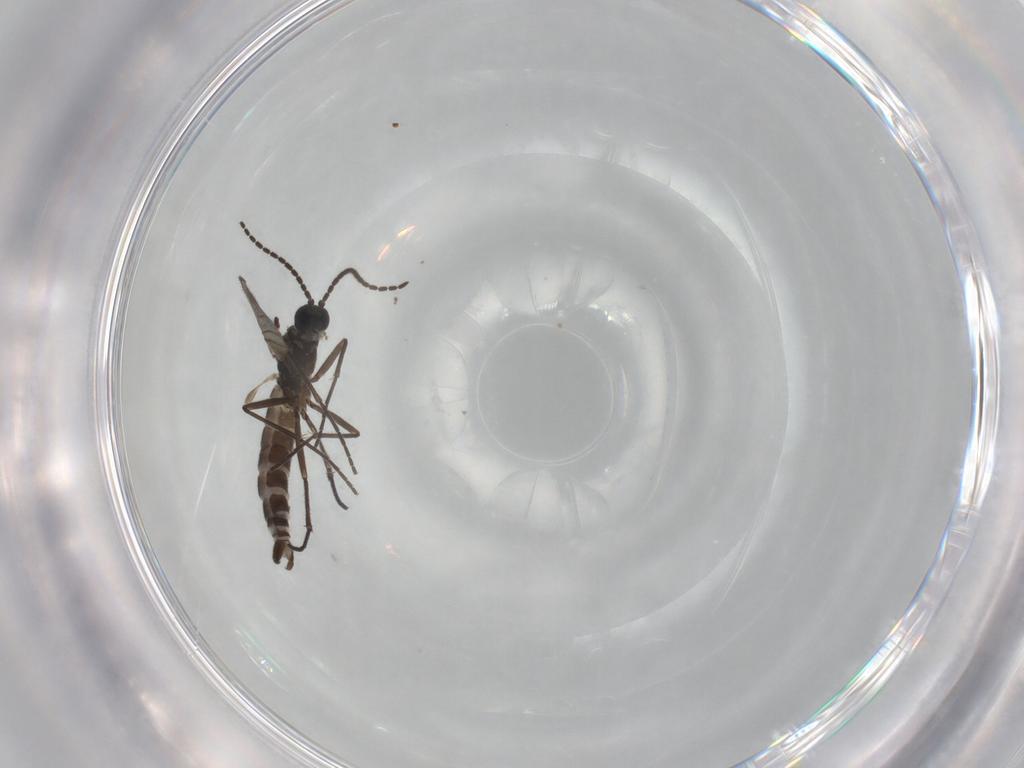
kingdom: Animalia
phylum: Arthropoda
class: Insecta
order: Diptera
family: Sciaridae
